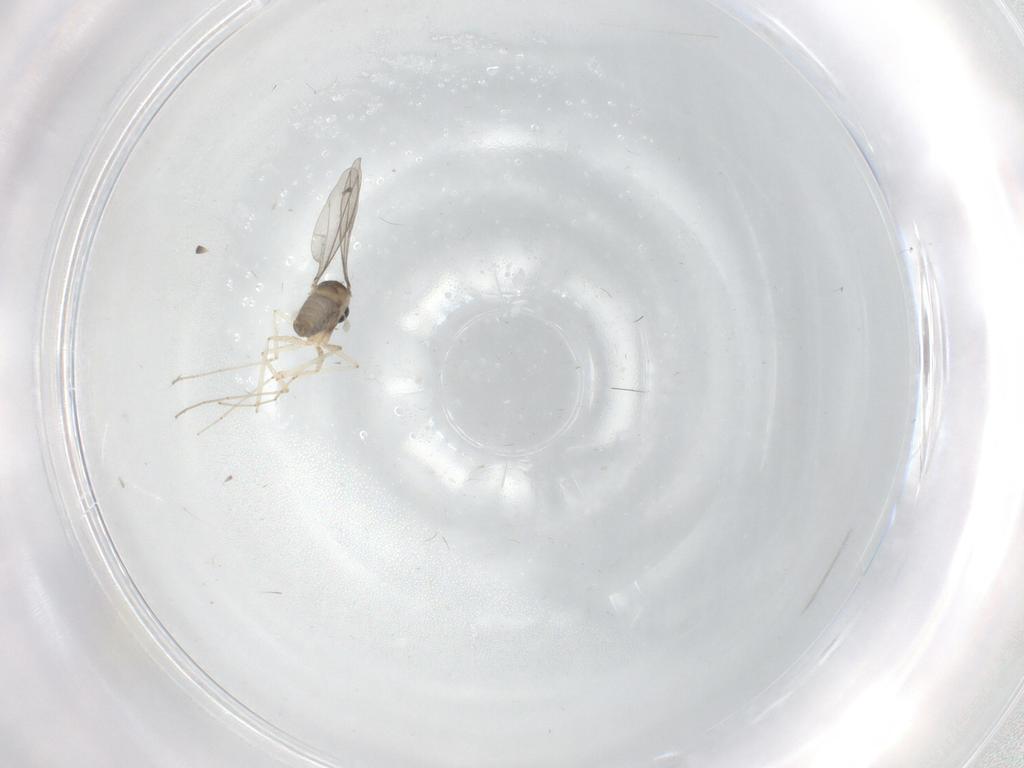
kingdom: Animalia
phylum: Arthropoda
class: Insecta
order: Diptera
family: Cecidomyiidae
